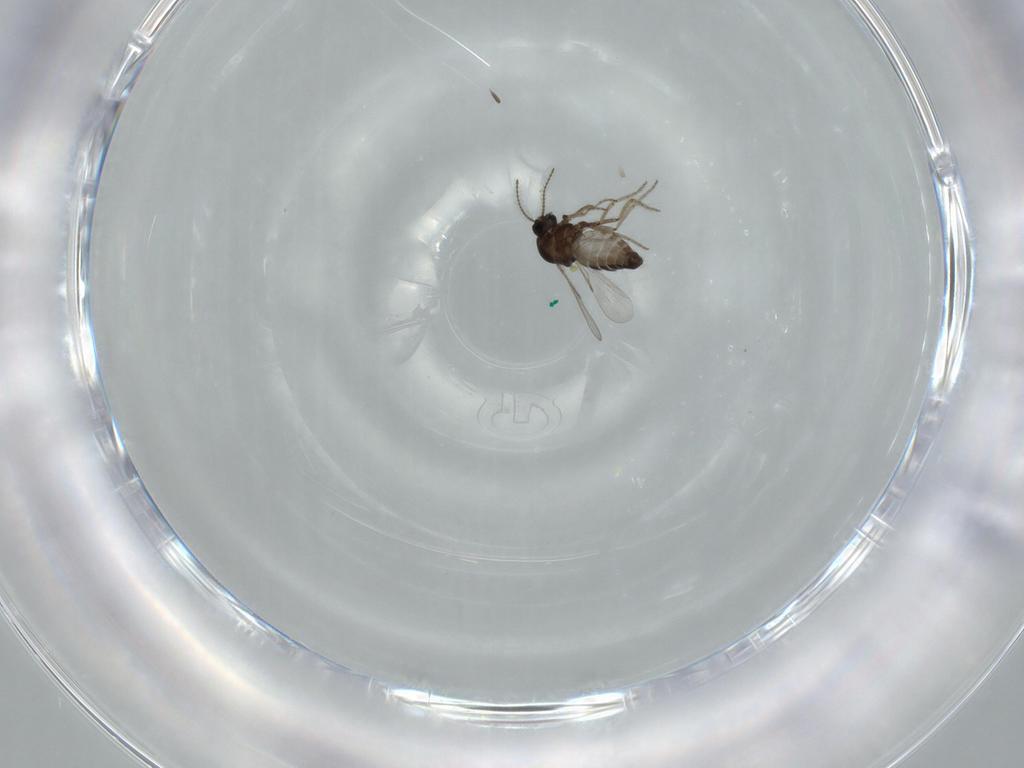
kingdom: Animalia
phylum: Arthropoda
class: Insecta
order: Diptera
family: Ceratopogonidae
